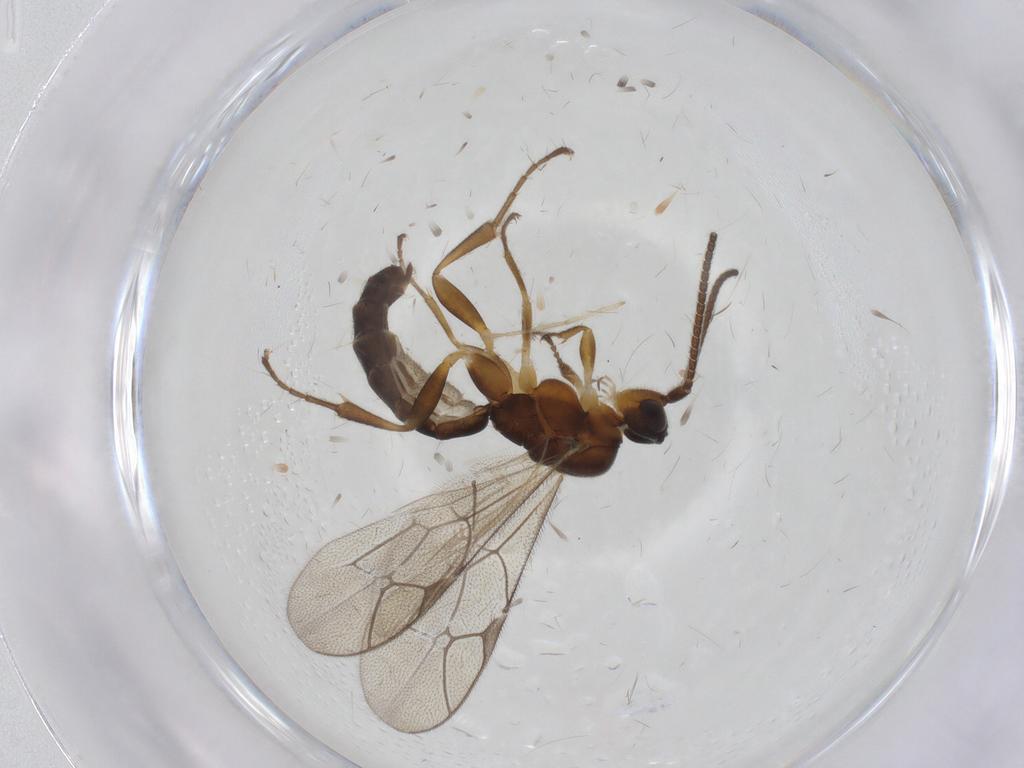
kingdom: Animalia
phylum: Arthropoda
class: Insecta
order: Hymenoptera
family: Ichneumonidae
